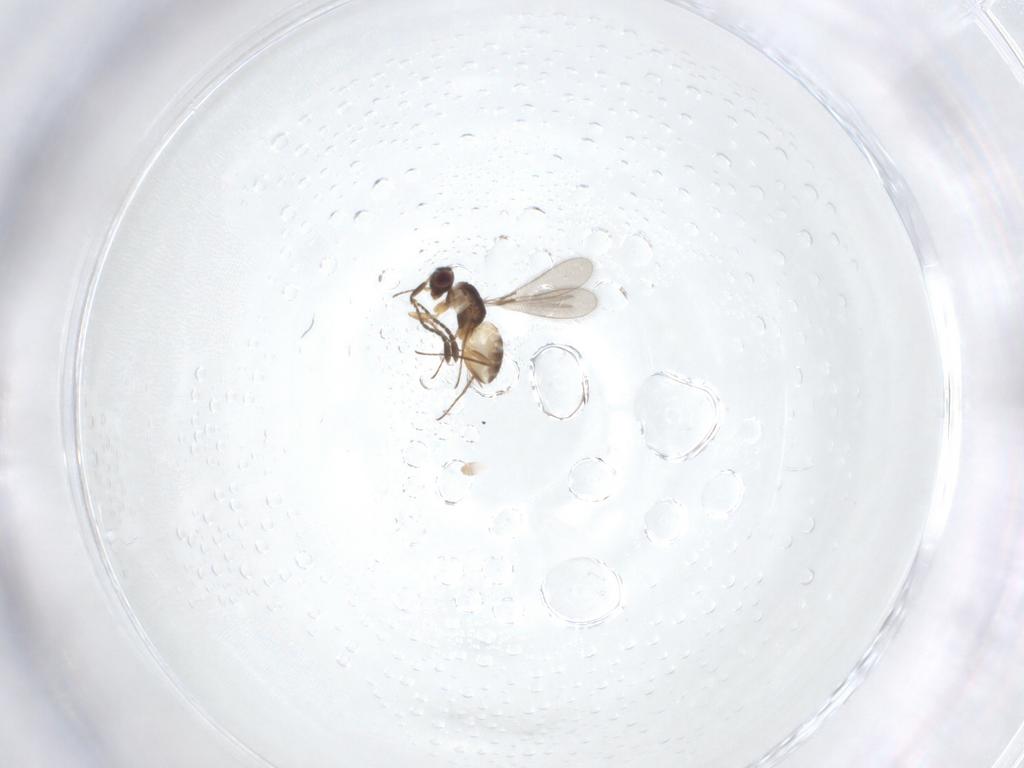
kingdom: Animalia
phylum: Arthropoda
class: Insecta
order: Hymenoptera
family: Mymaridae
